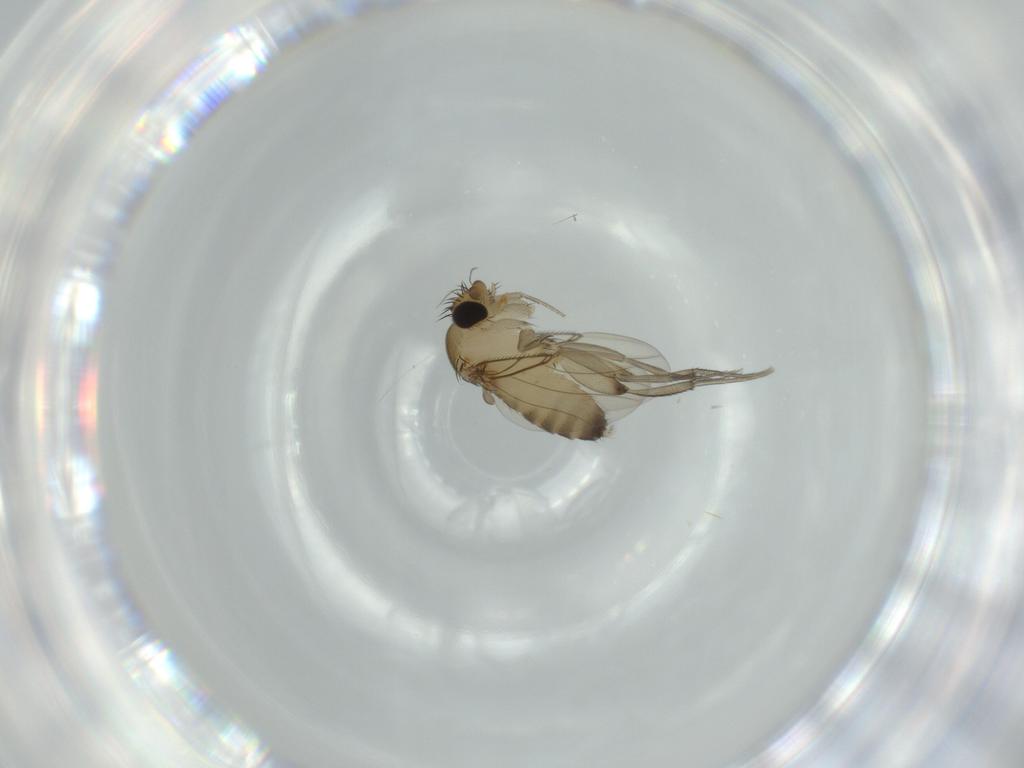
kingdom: Animalia
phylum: Arthropoda
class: Insecta
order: Diptera
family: Phoridae
